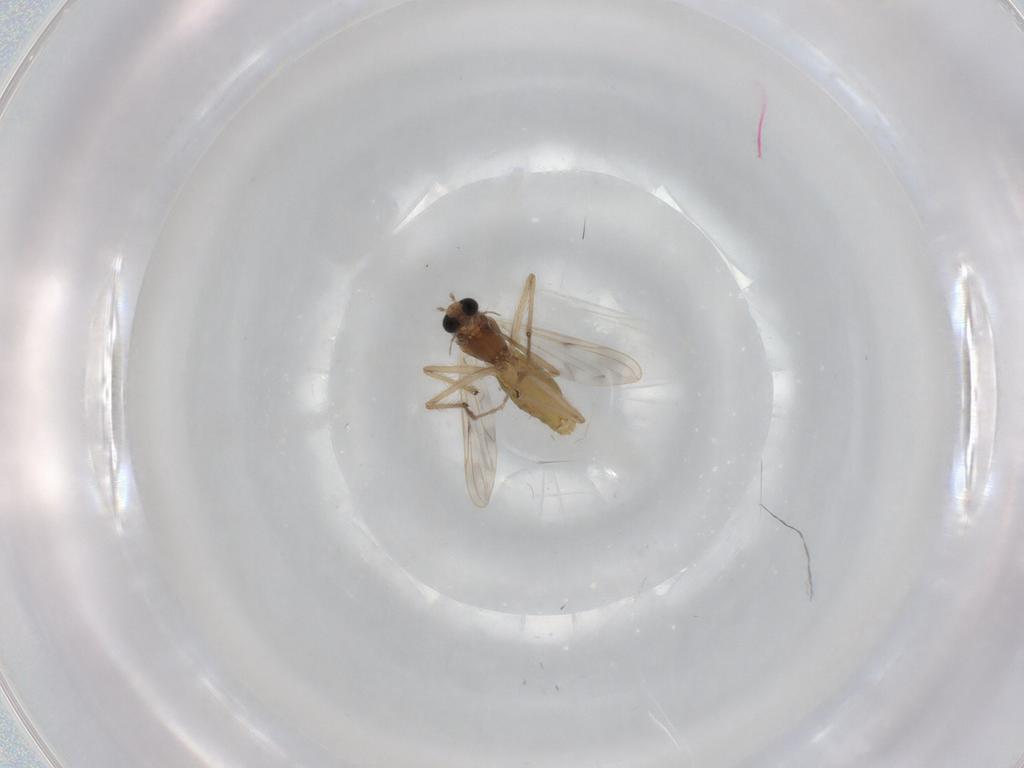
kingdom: Animalia
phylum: Arthropoda
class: Insecta
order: Diptera
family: Chironomidae
